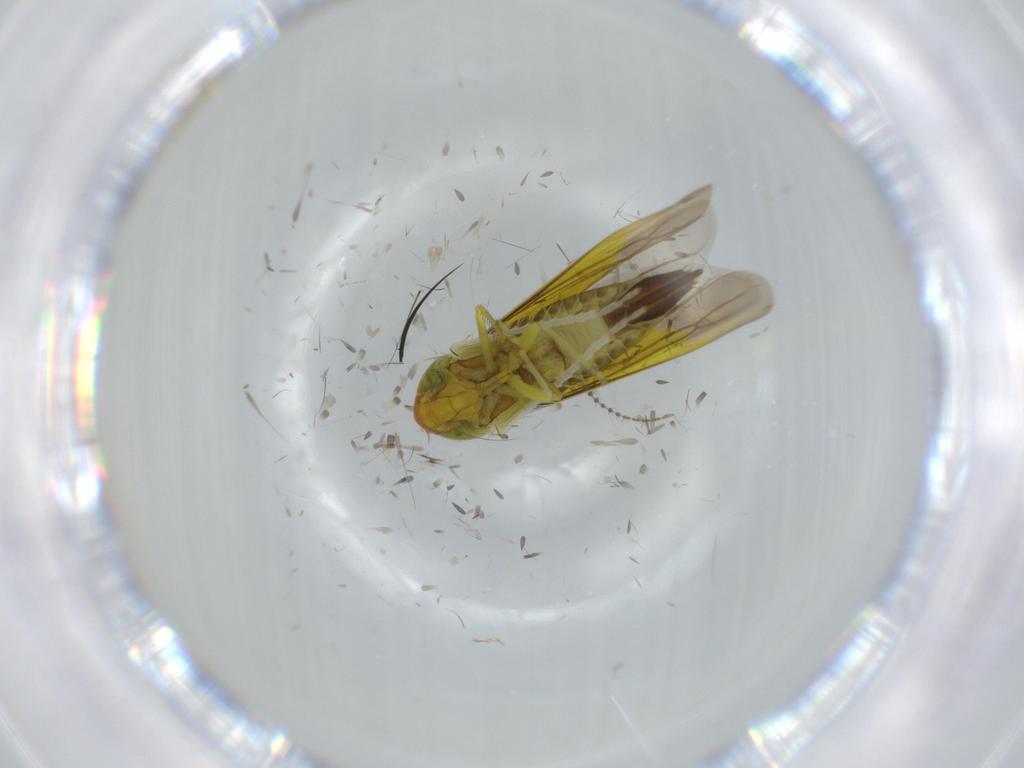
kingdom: Animalia
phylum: Arthropoda
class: Insecta
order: Hemiptera
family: Cicadellidae
